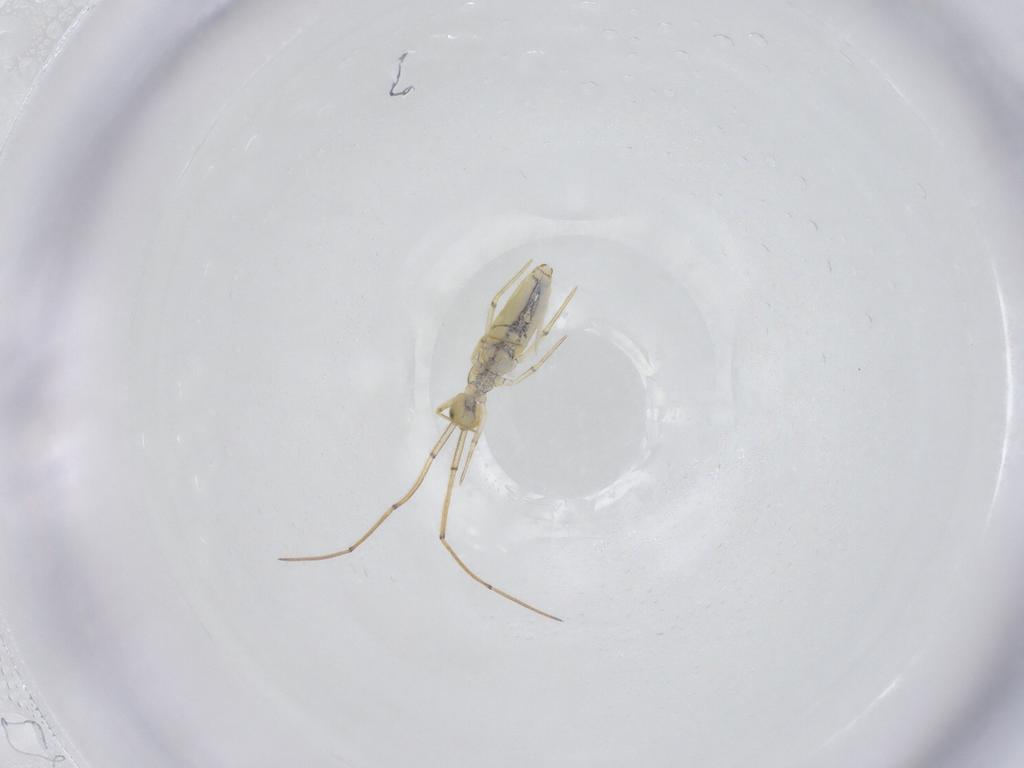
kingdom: Animalia
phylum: Arthropoda
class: Collembola
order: Entomobryomorpha
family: Paronellidae
